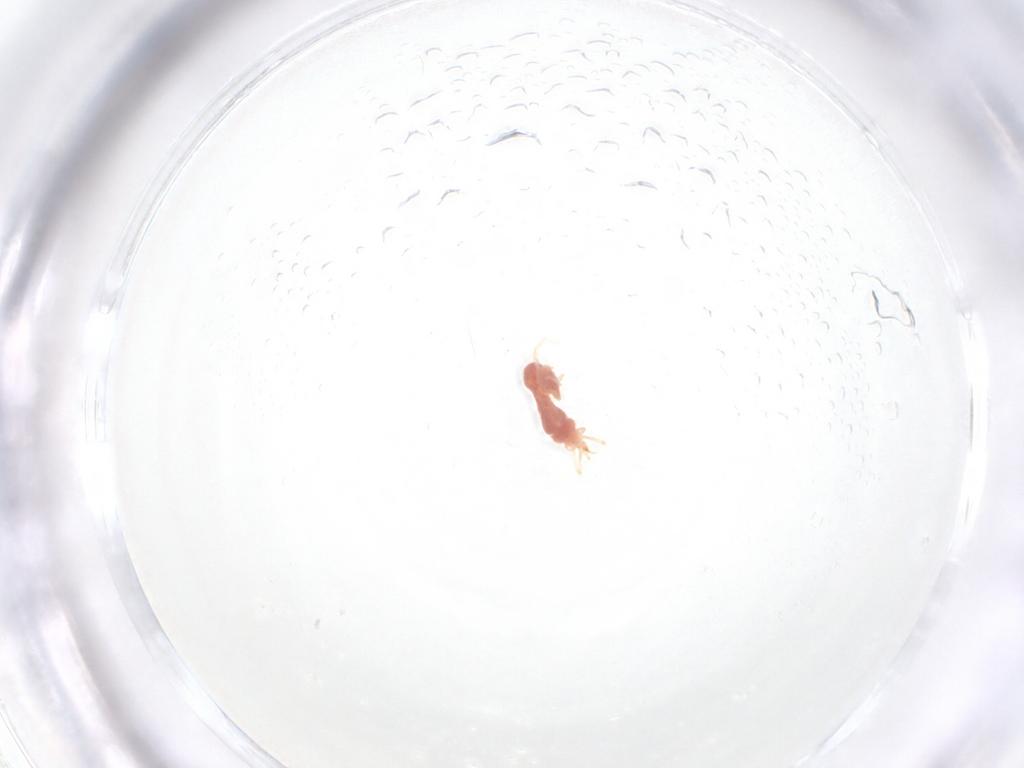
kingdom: Animalia
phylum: Arthropoda
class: Arachnida
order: Trombidiformes
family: Erythraeidae
